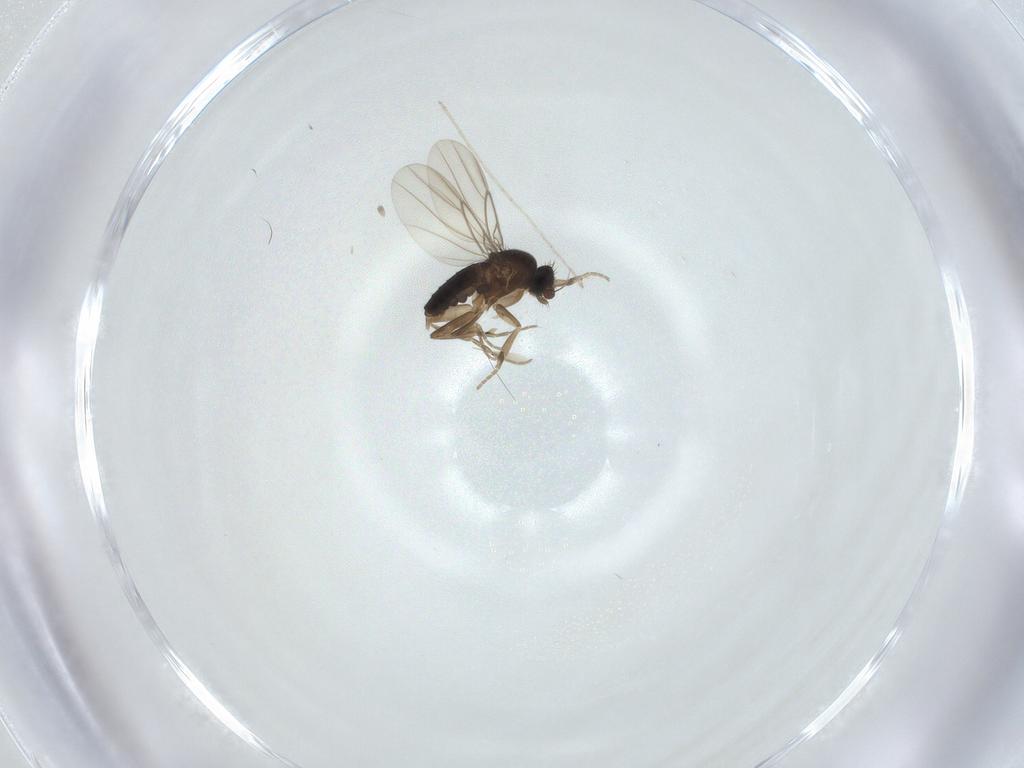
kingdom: Animalia
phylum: Arthropoda
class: Insecta
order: Diptera
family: Phoridae
